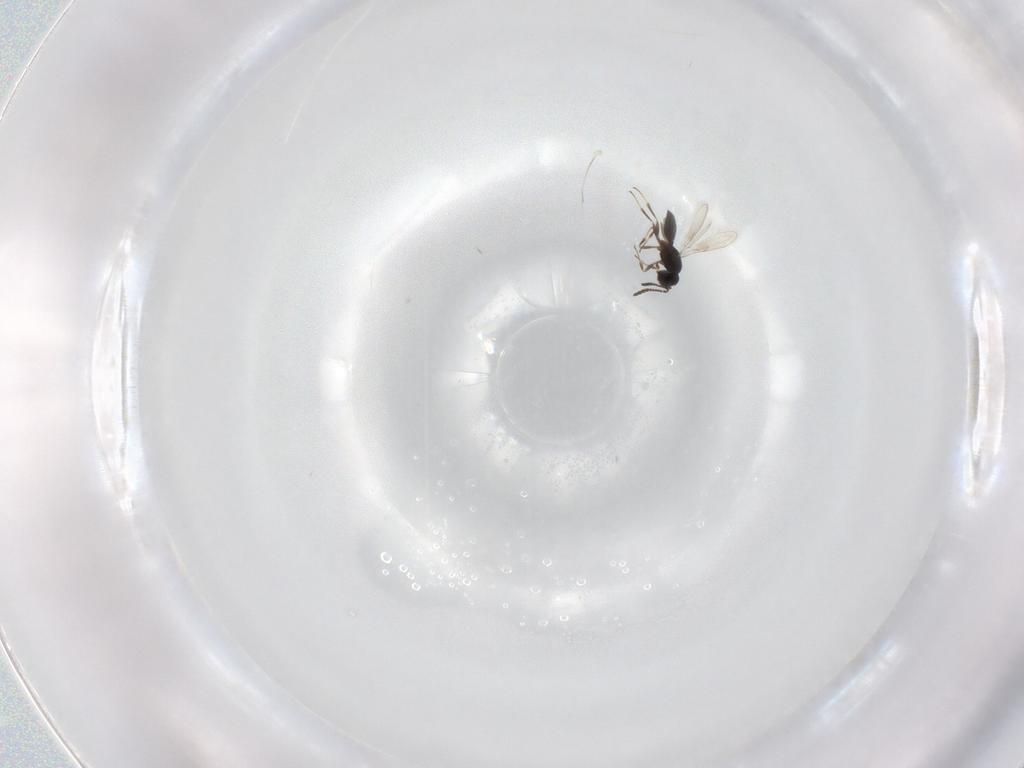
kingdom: Animalia
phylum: Arthropoda
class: Insecta
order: Hymenoptera
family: Scelionidae
